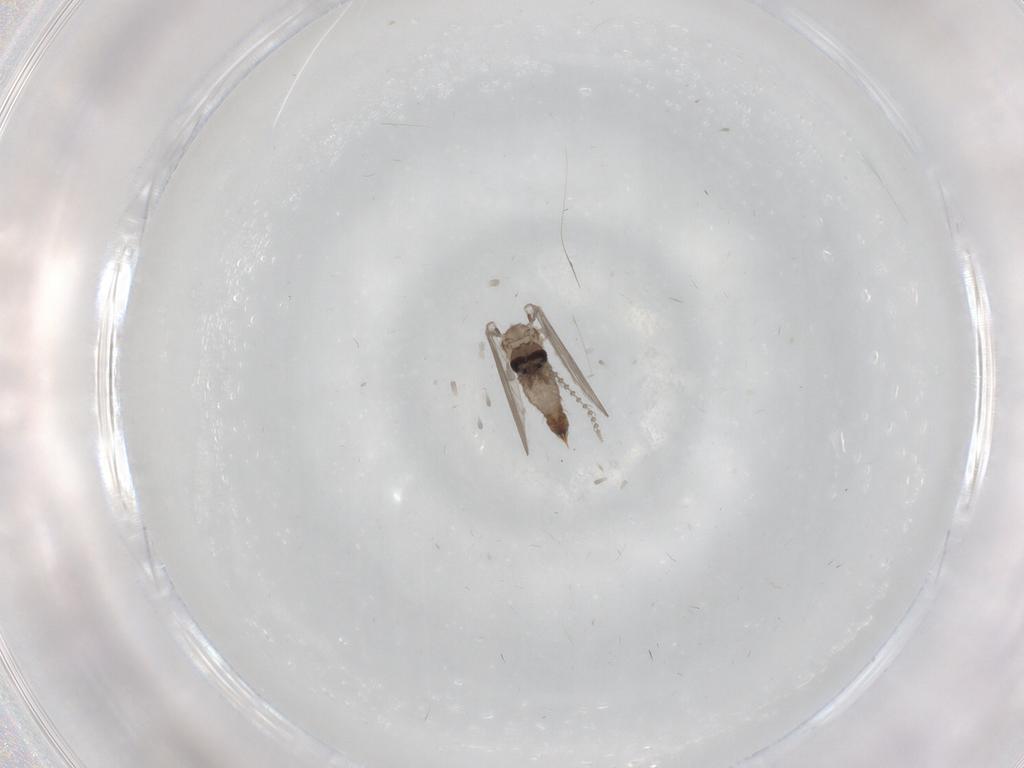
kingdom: Animalia
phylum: Arthropoda
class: Insecta
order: Diptera
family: Psychodidae
